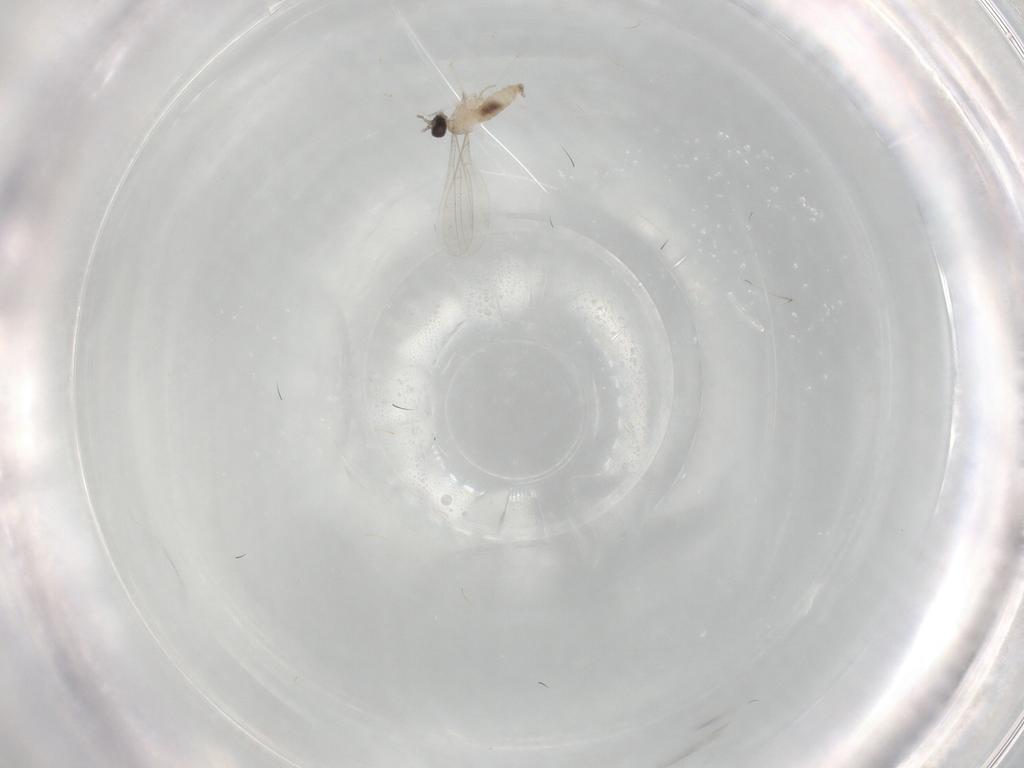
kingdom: Animalia
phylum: Arthropoda
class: Insecta
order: Diptera
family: Cecidomyiidae
